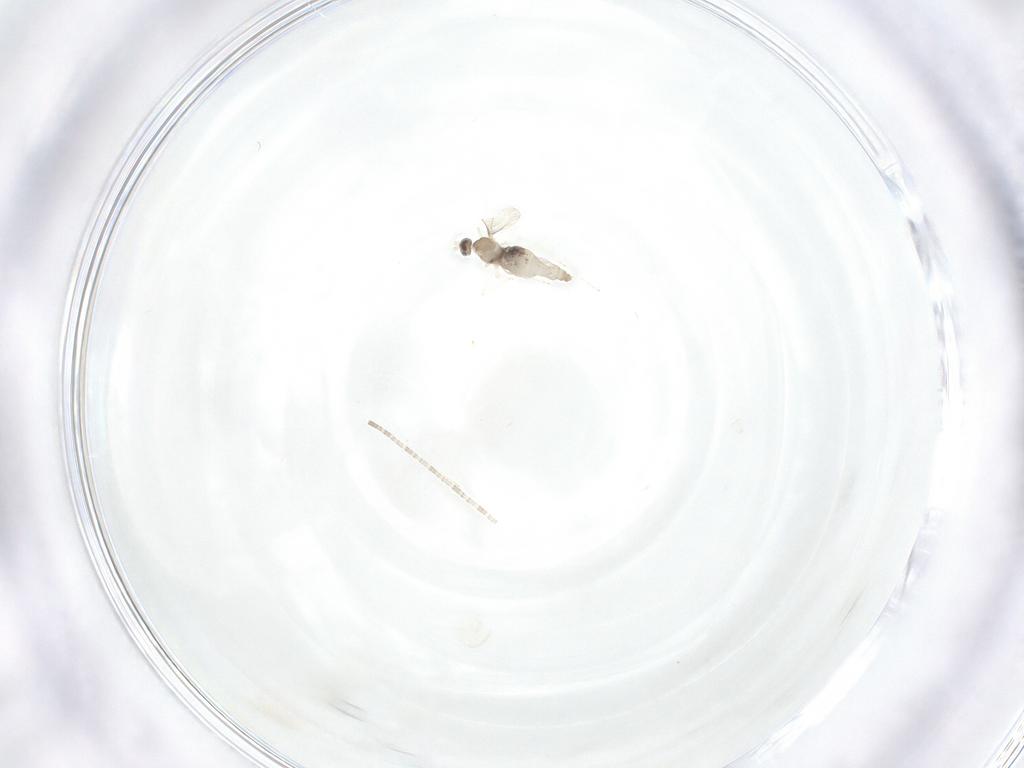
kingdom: Animalia
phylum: Arthropoda
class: Insecta
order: Diptera
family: Cecidomyiidae
